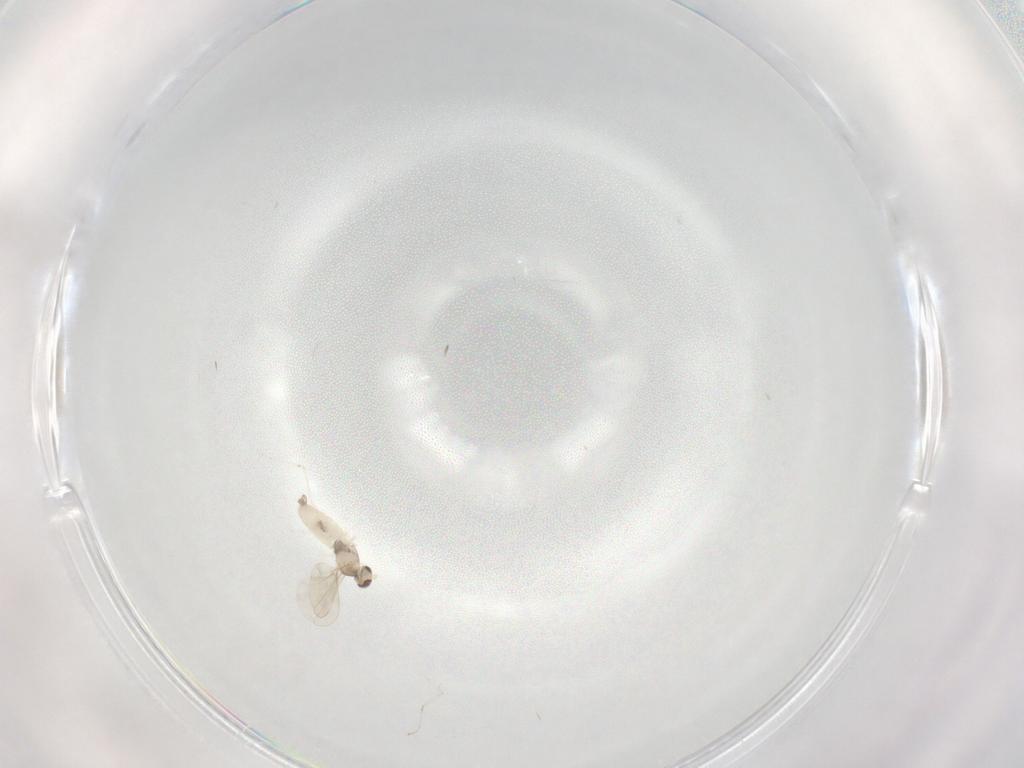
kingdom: Animalia
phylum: Arthropoda
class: Insecta
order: Diptera
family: Cecidomyiidae
